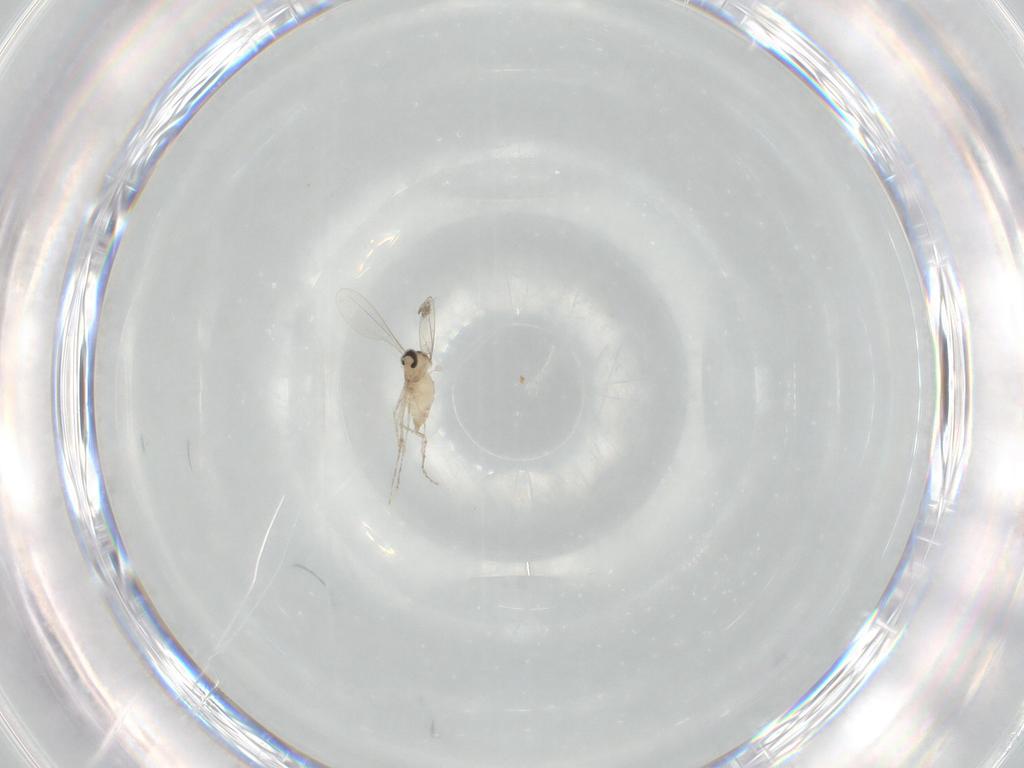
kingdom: Animalia
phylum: Arthropoda
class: Insecta
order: Diptera
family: Cecidomyiidae
